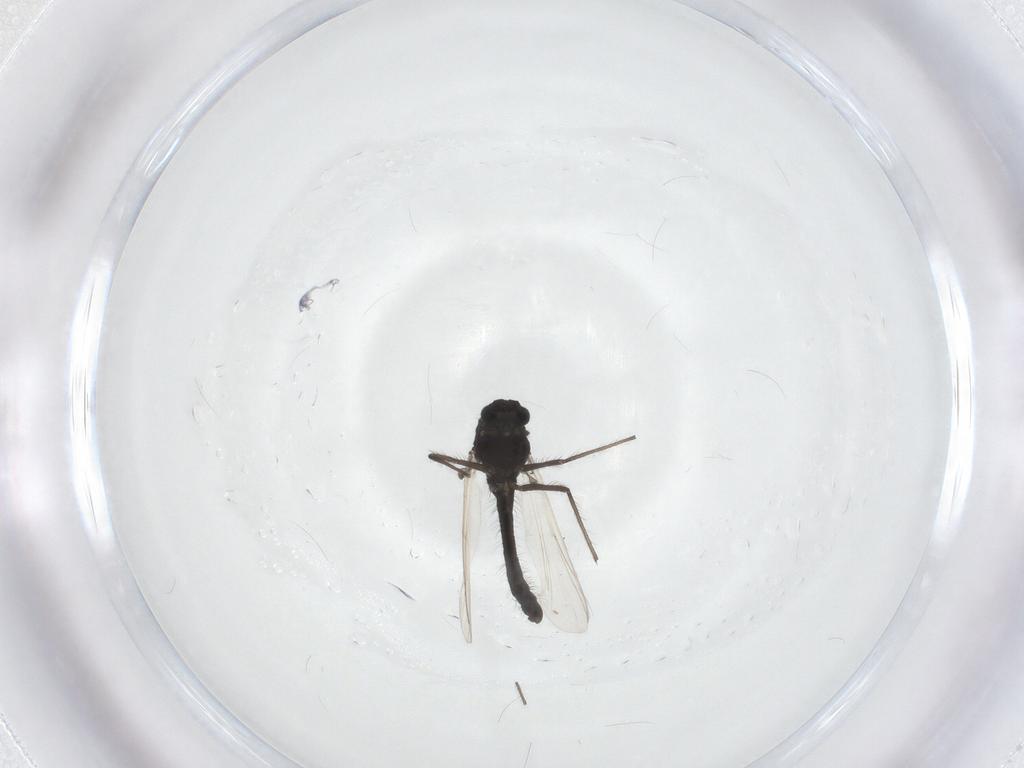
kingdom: Animalia
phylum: Arthropoda
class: Insecta
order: Diptera
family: Chironomidae
